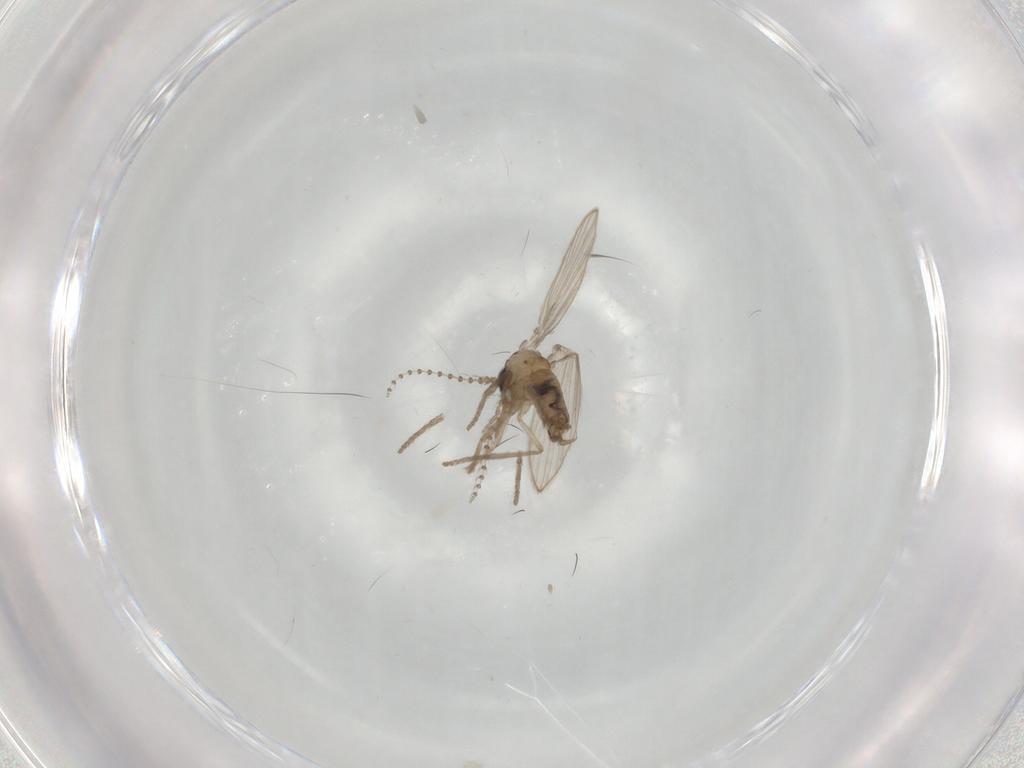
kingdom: Animalia
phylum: Arthropoda
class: Insecta
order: Diptera
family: Psychodidae
